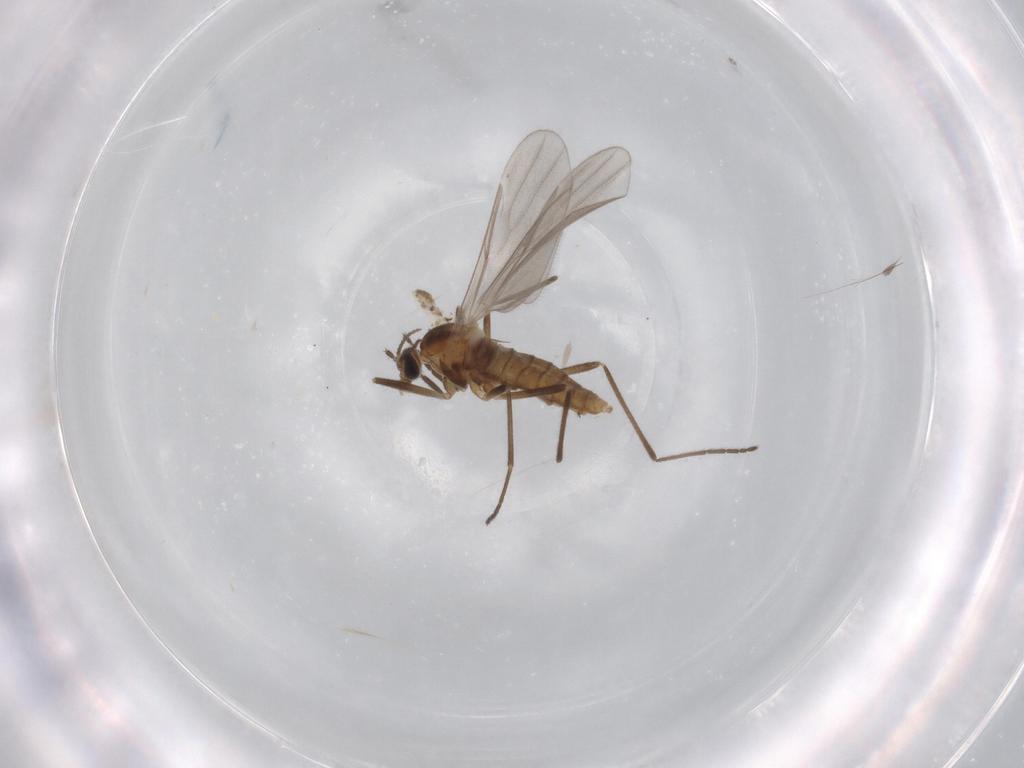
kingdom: Animalia
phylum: Arthropoda
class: Insecta
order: Diptera
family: Cecidomyiidae
